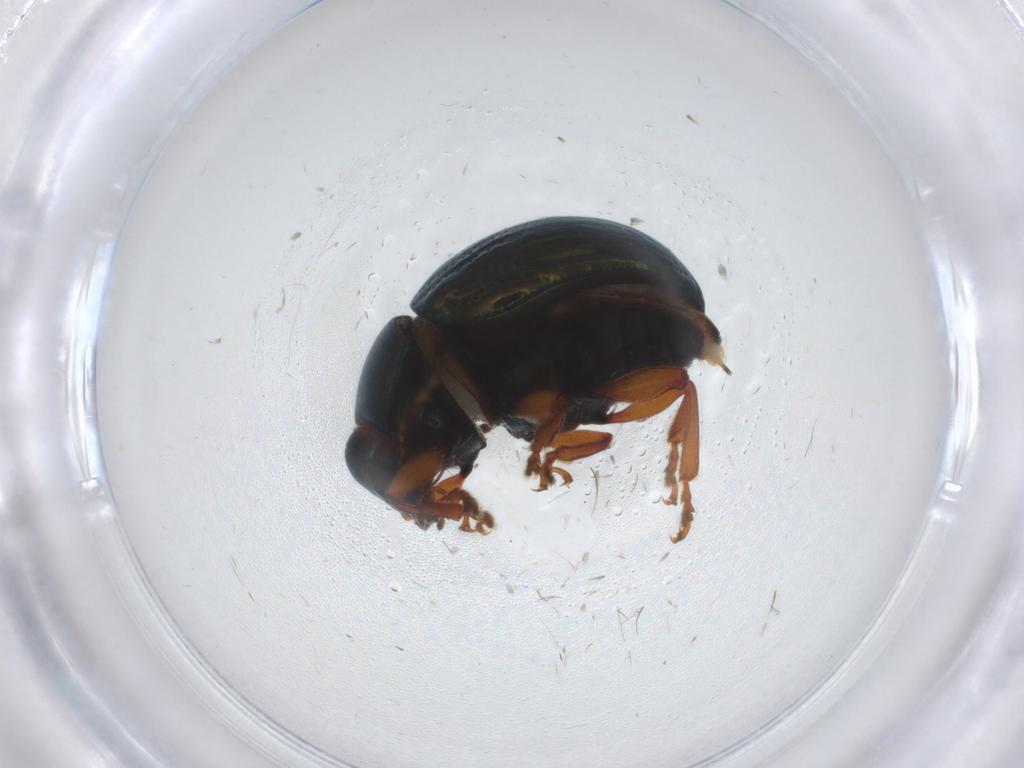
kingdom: Animalia
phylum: Arthropoda
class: Insecta
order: Coleoptera
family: Chrysomelidae
